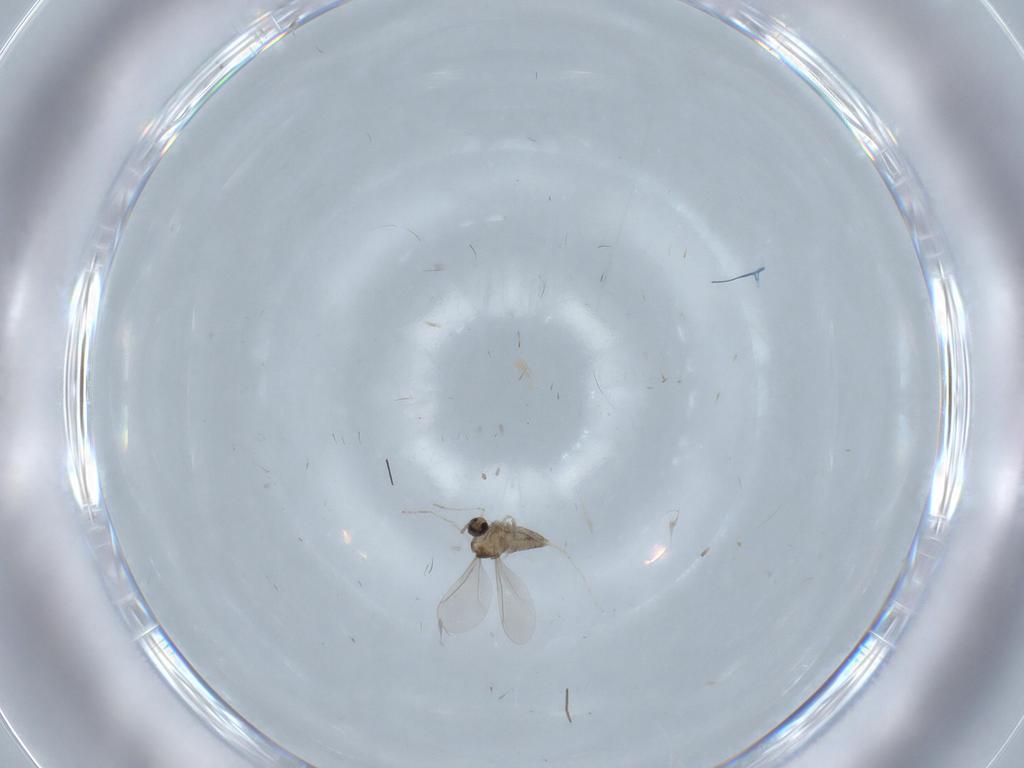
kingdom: Animalia
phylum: Arthropoda
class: Insecta
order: Diptera
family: Cecidomyiidae
